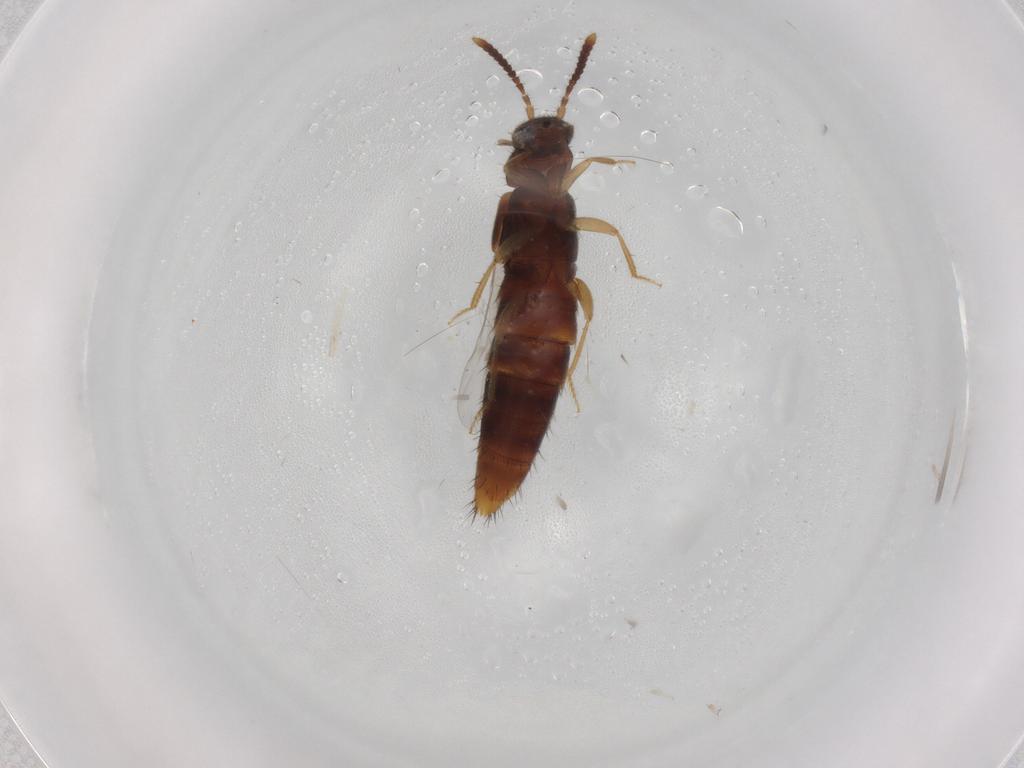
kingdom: Animalia
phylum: Arthropoda
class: Insecta
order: Coleoptera
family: Staphylinidae
